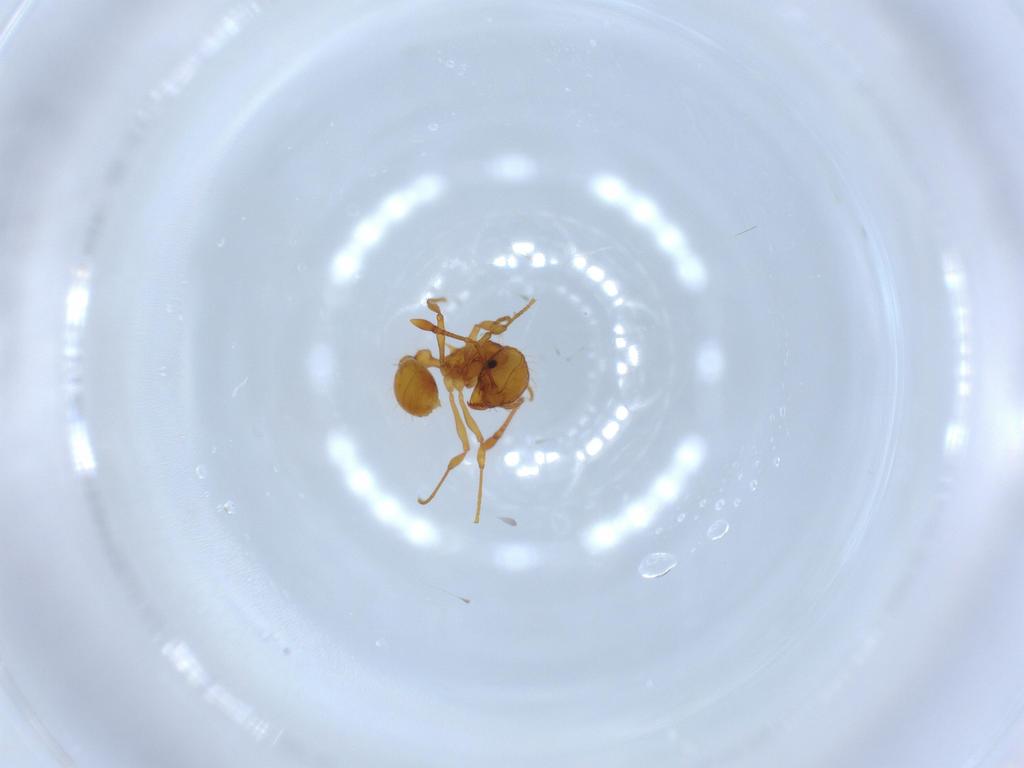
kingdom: Animalia
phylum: Arthropoda
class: Insecta
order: Hymenoptera
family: Formicidae
